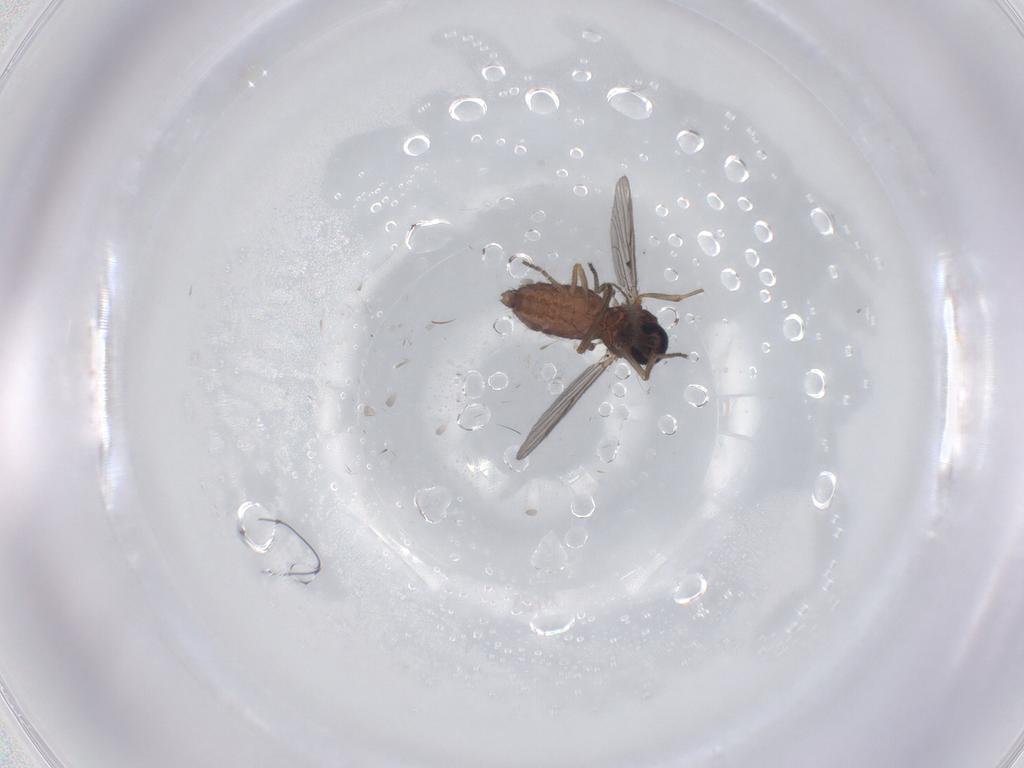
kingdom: Animalia
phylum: Arthropoda
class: Insecta
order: Diptera
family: Ceratopogonidae
